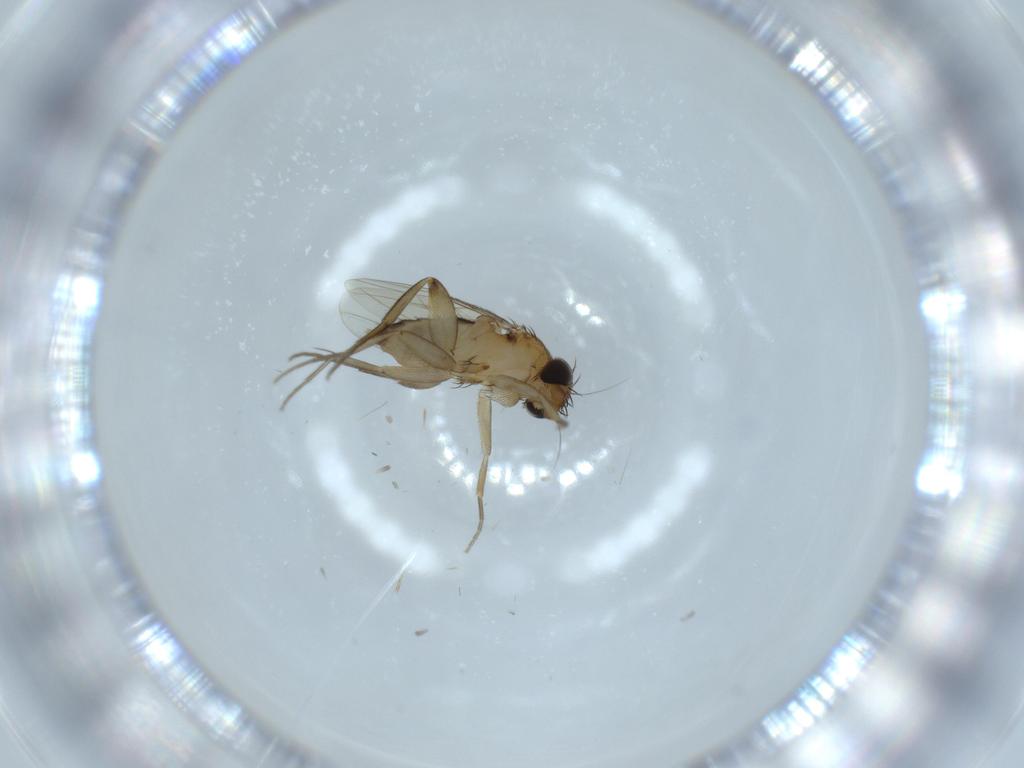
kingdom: Animalia
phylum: Arthropoda
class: Insecta
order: Diptera
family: Phoridae
